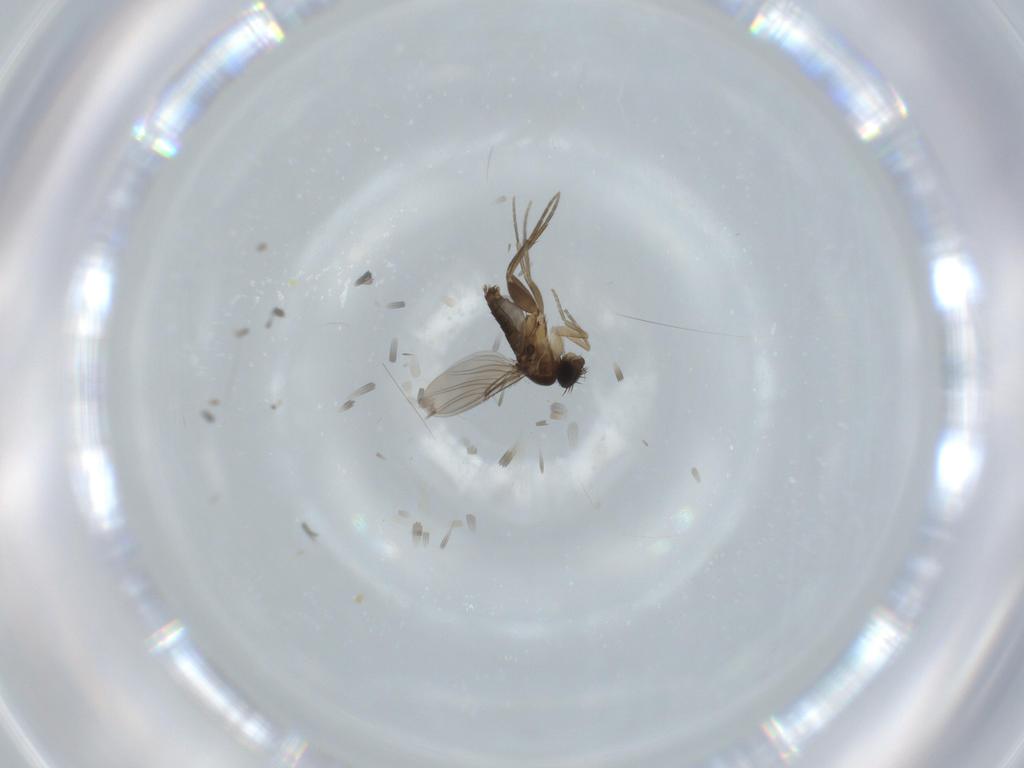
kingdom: Animalia
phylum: Arthropoda
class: Insecta
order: Diptera
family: Phoridae
